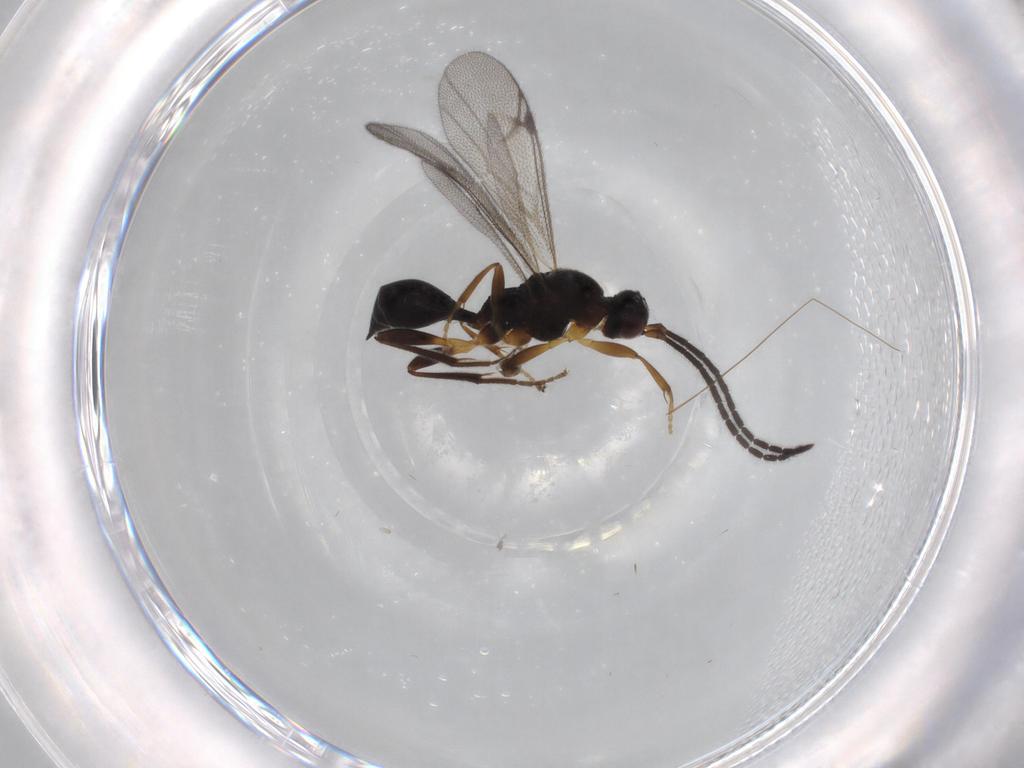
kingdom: Animalia
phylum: Arthropoda
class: Insecta
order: Hymenoptera
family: Proctotrupidae
